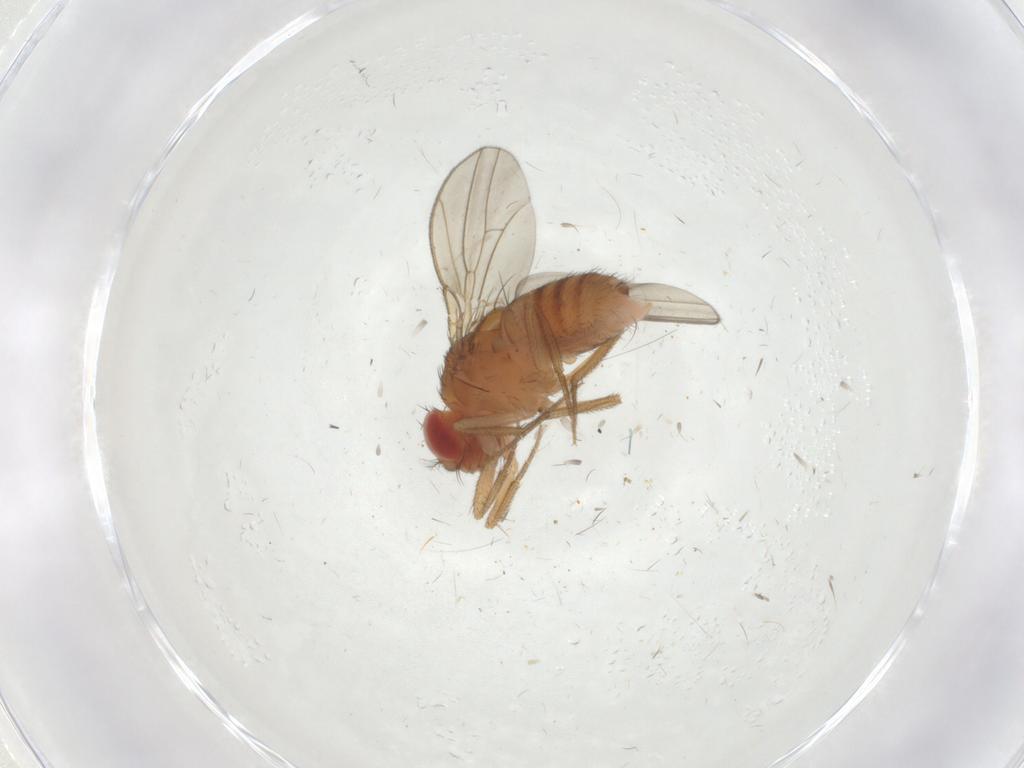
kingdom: Animalia
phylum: Arthropoda
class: Insecta
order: Diptera
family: Drosophilidae
